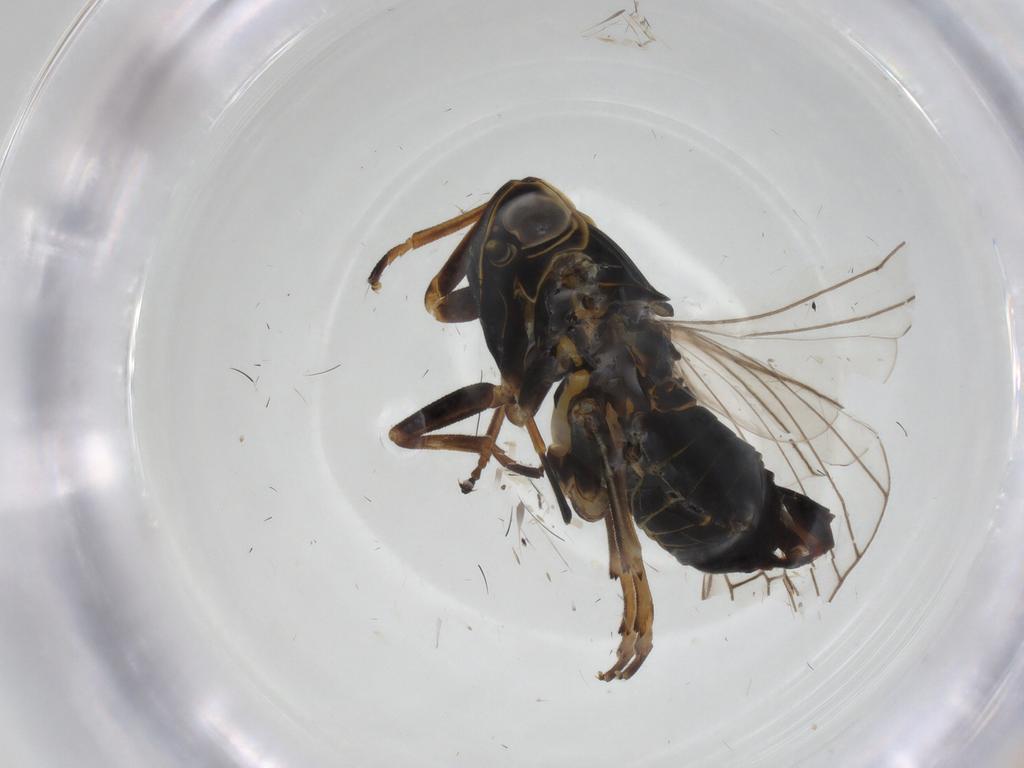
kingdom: Animalia
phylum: Arthropoda
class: Insecta
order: Hemiptera
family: Cixiidae
